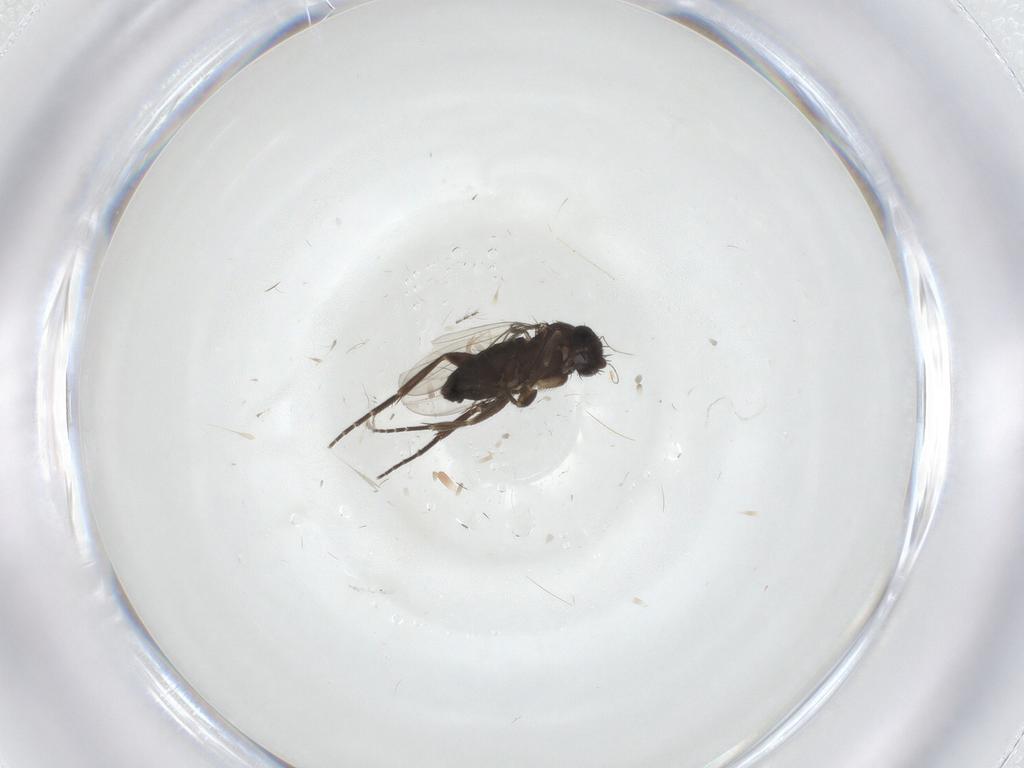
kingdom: Animalia
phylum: Arthropoda
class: Insecta
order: Diptera
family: Phoridae
